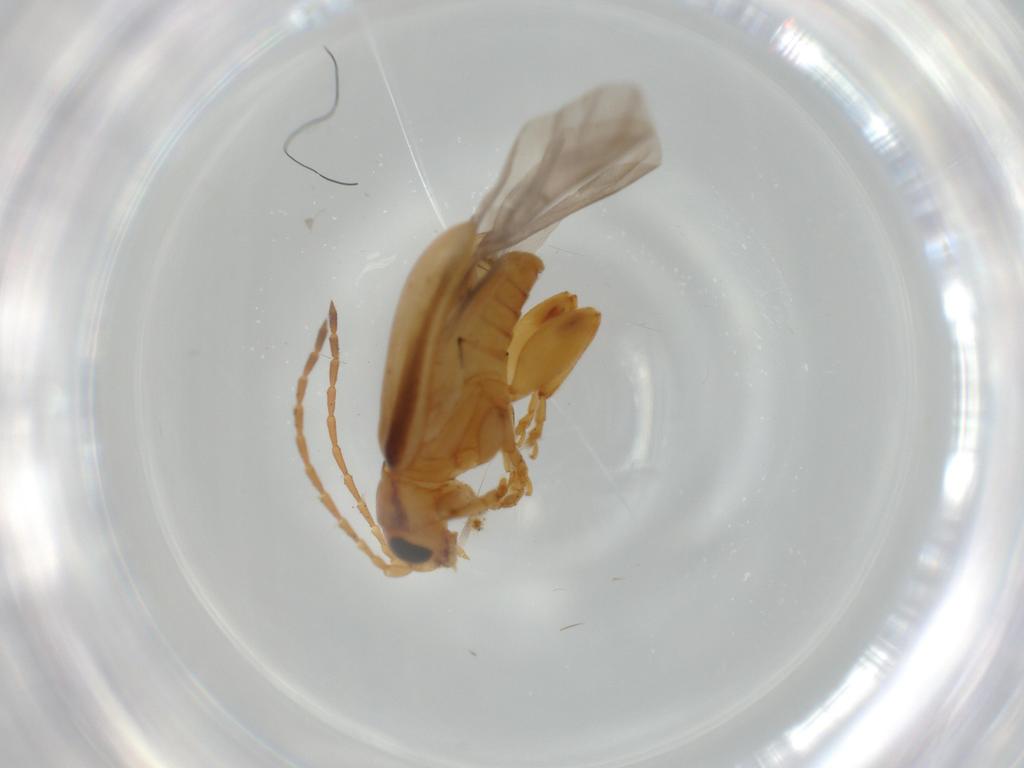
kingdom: Animalia
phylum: Arthropoda
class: Insecta
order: Coleoptera
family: Chrysomelidae
